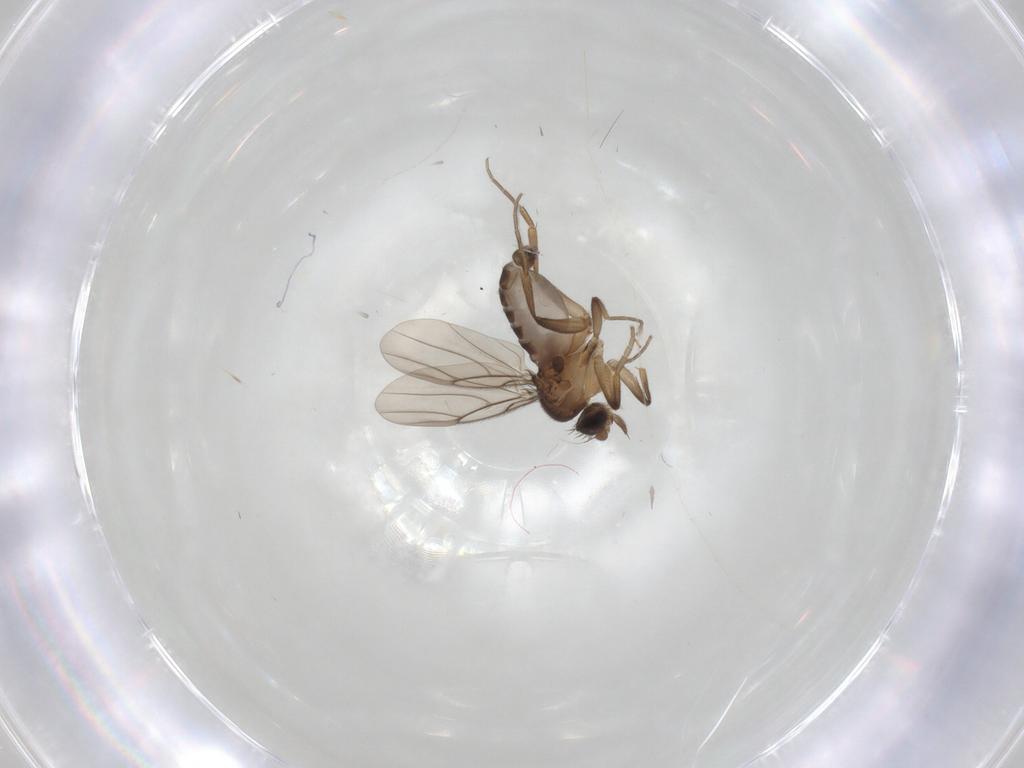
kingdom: Animalia
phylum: Arthropoda
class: Insecta
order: Diptera
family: Phoridae
